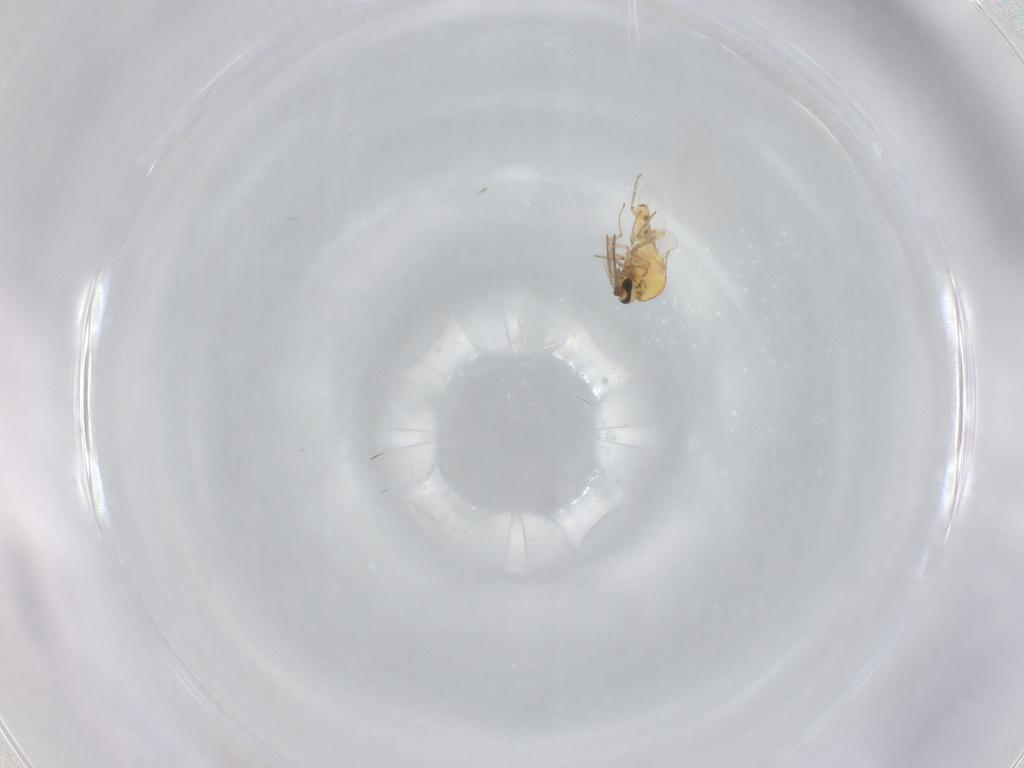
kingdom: Animalia
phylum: Arthropoda
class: Insecta
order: Diptera
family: Phoridae
